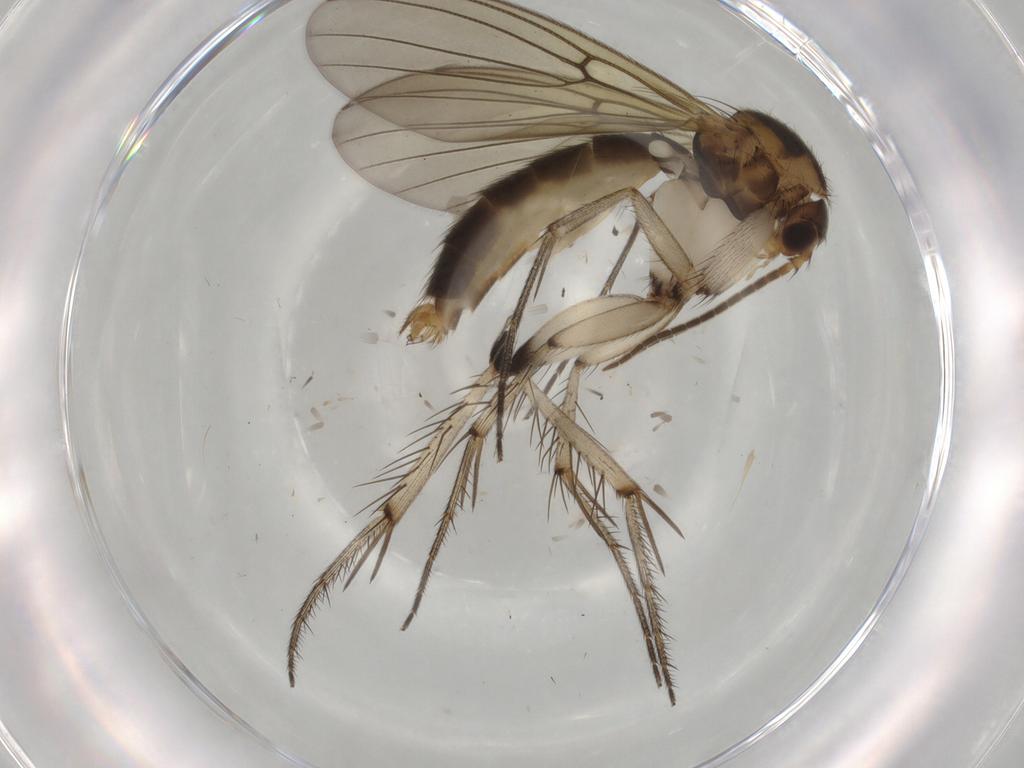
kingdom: Animalia
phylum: Arthropoda
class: Insecta
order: Diptera
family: Mycetophilidae
